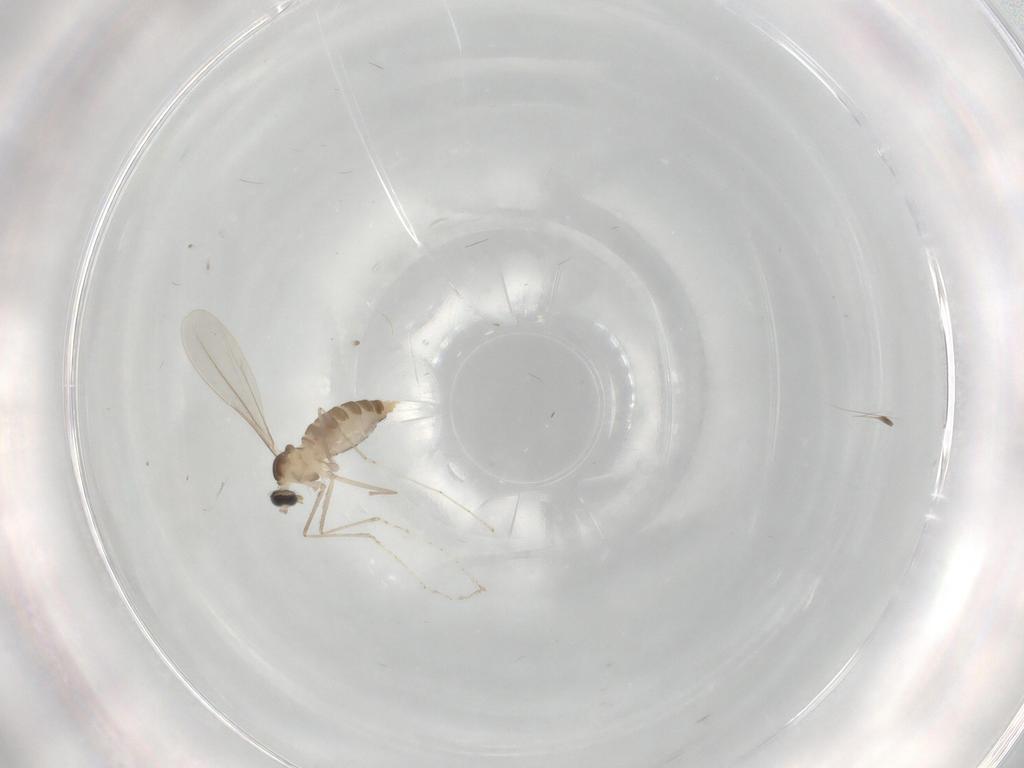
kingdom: Animalia
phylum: Arthropoda
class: Insecta
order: Diptera
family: Cecidomyiidae
